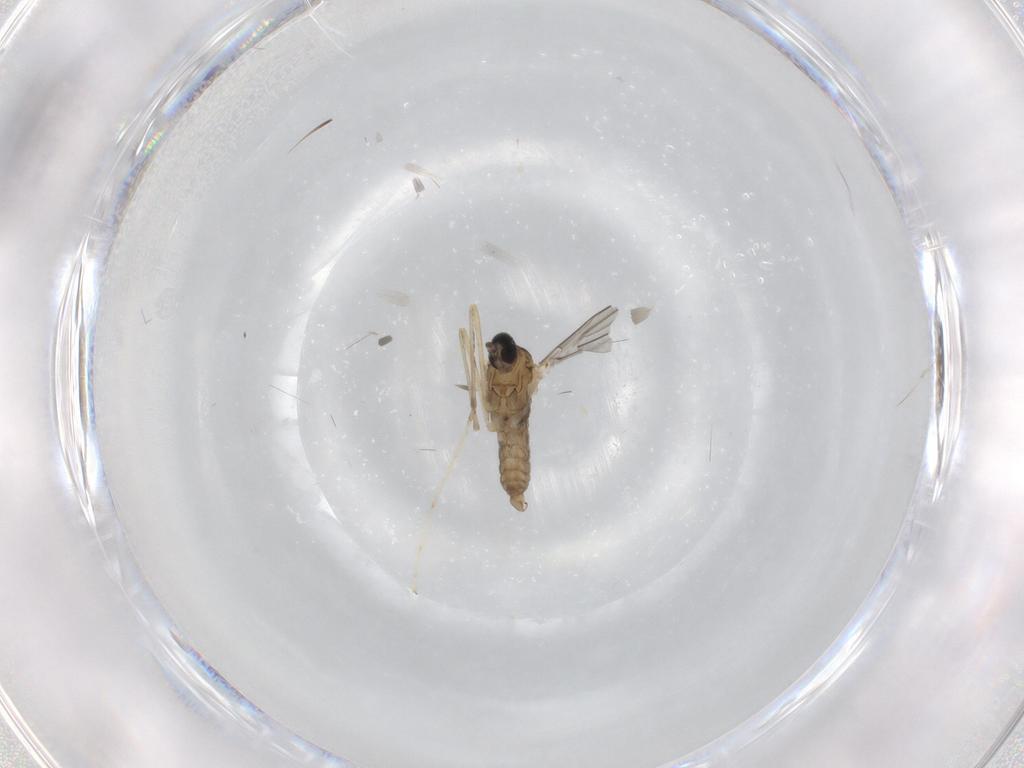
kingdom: Animalia
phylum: Arthropoda
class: Insecta
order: Diptera
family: Cecidomyiidae
